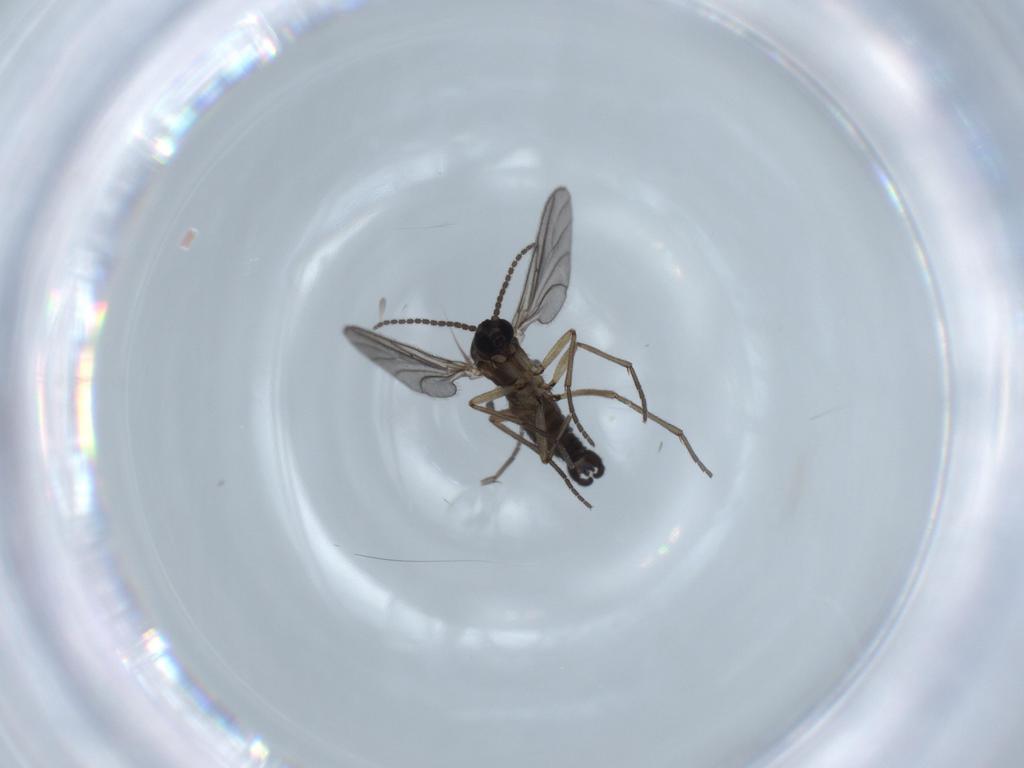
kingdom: Animalia
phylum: Arthropoda
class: Insecta
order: Diptera
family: Sciaridae
